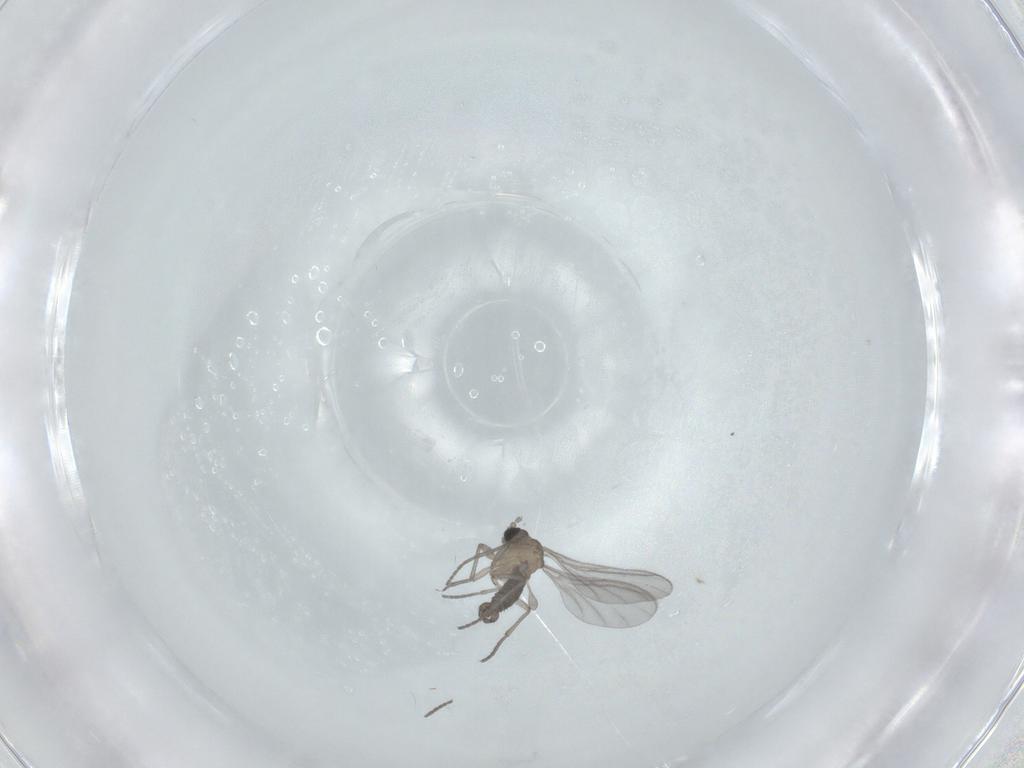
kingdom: Animalia
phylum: Arthropoda
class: Insecta
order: Diptera
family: Sciaridae
